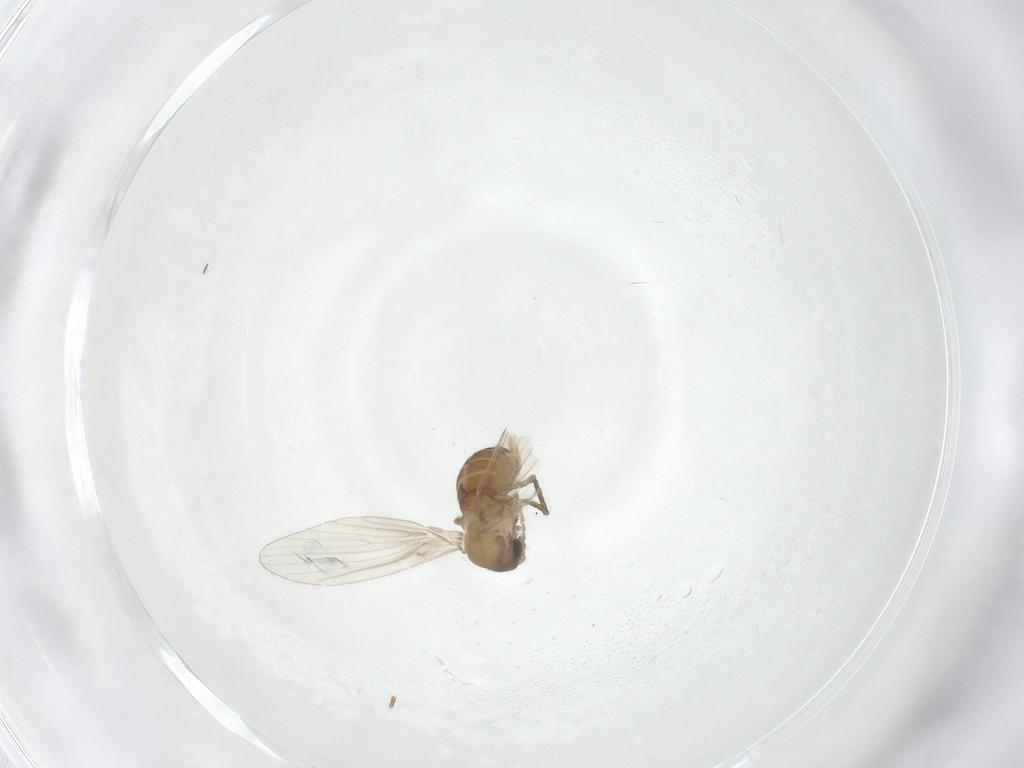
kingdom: Animalia
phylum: Arthropoda
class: Insecta
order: Diptera
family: Psychodidae
